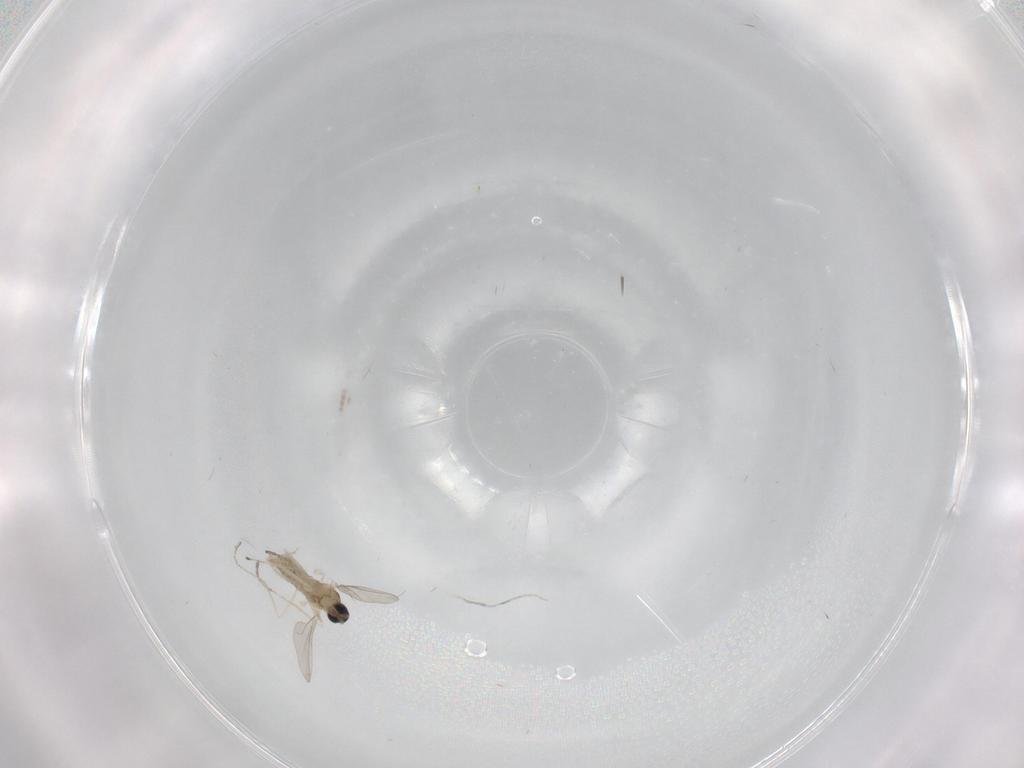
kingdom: Animalia
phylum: Arthropoda
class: Insecta
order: Diptera
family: Cecidomyiidae
